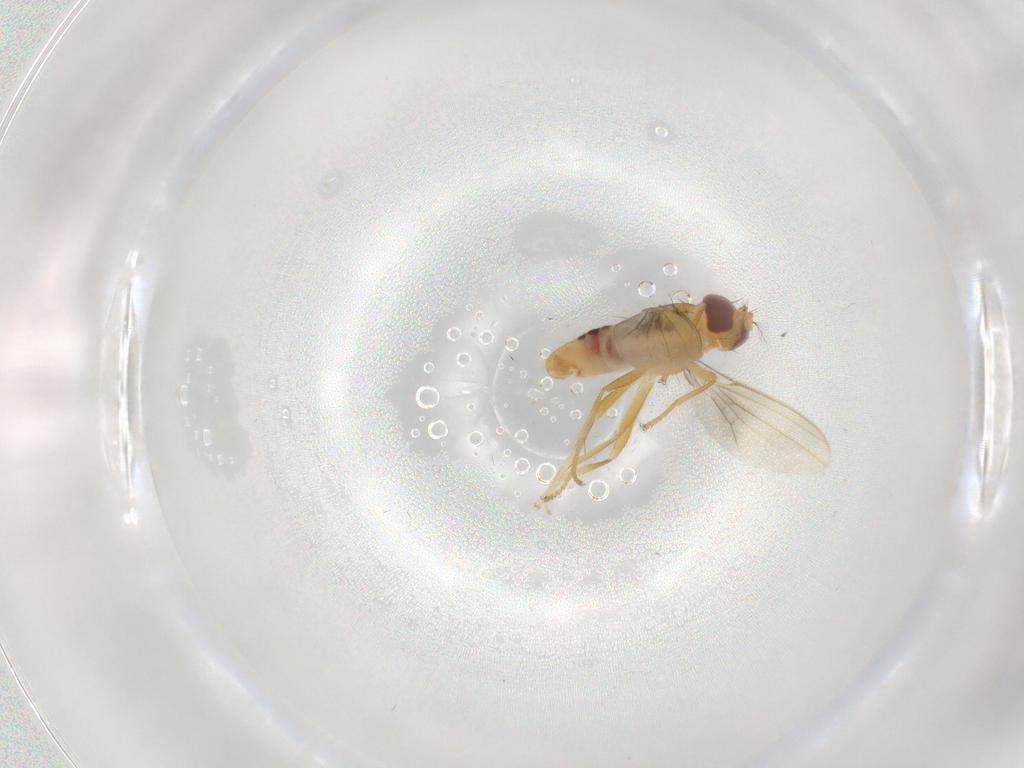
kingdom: Animalia
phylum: Arthropoda
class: Insecta
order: Diptera
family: Periscelididae
